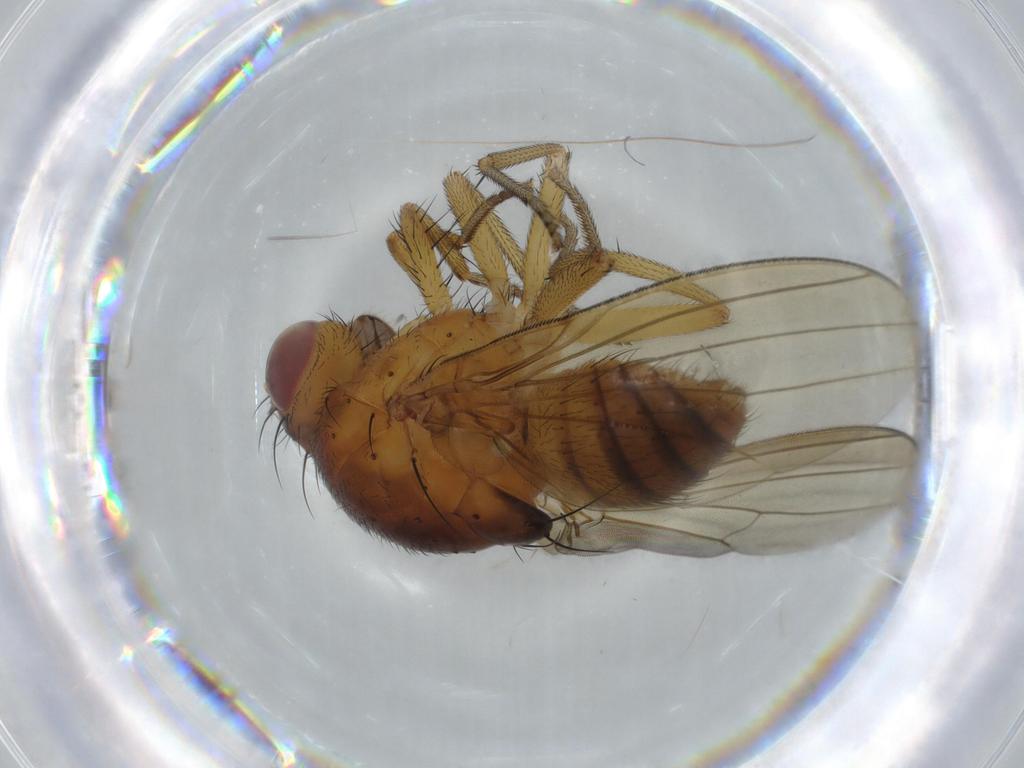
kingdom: Animalia
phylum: Arthropoda
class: Insecta
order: Diptera
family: Lauxaniidae
